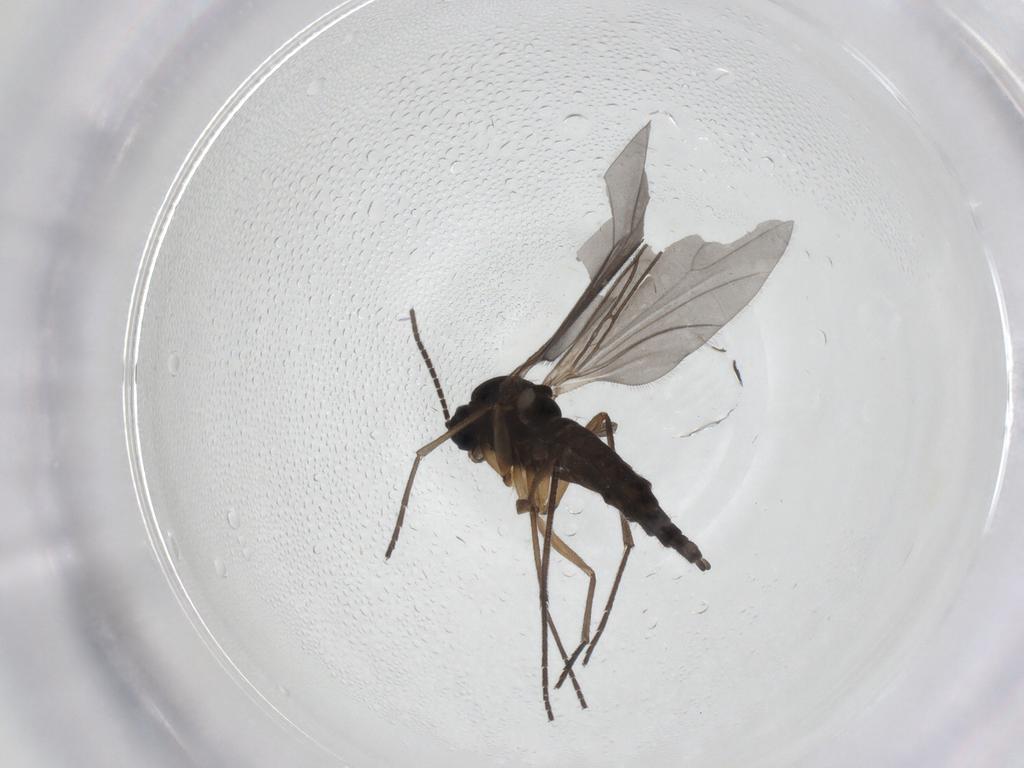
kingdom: Animalia
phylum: Arthropoda
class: Insecta
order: Diptera
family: Sciaridae
